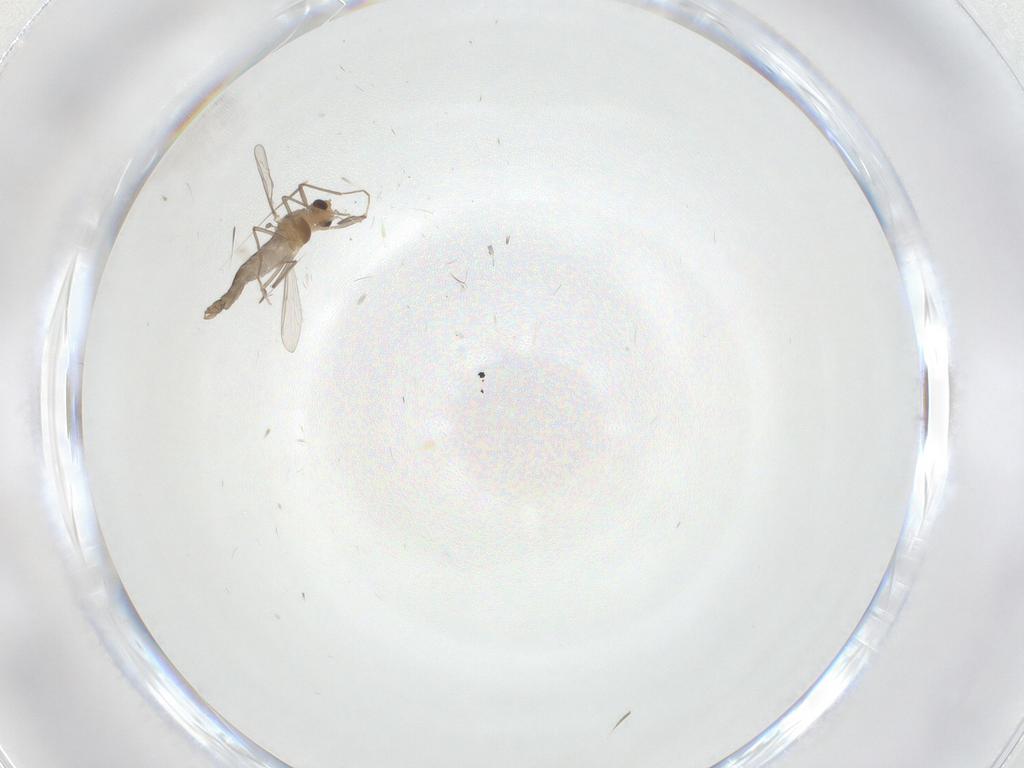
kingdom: Animalia
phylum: Arthropoda
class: Insecta
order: Diptera
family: Chironomidae
